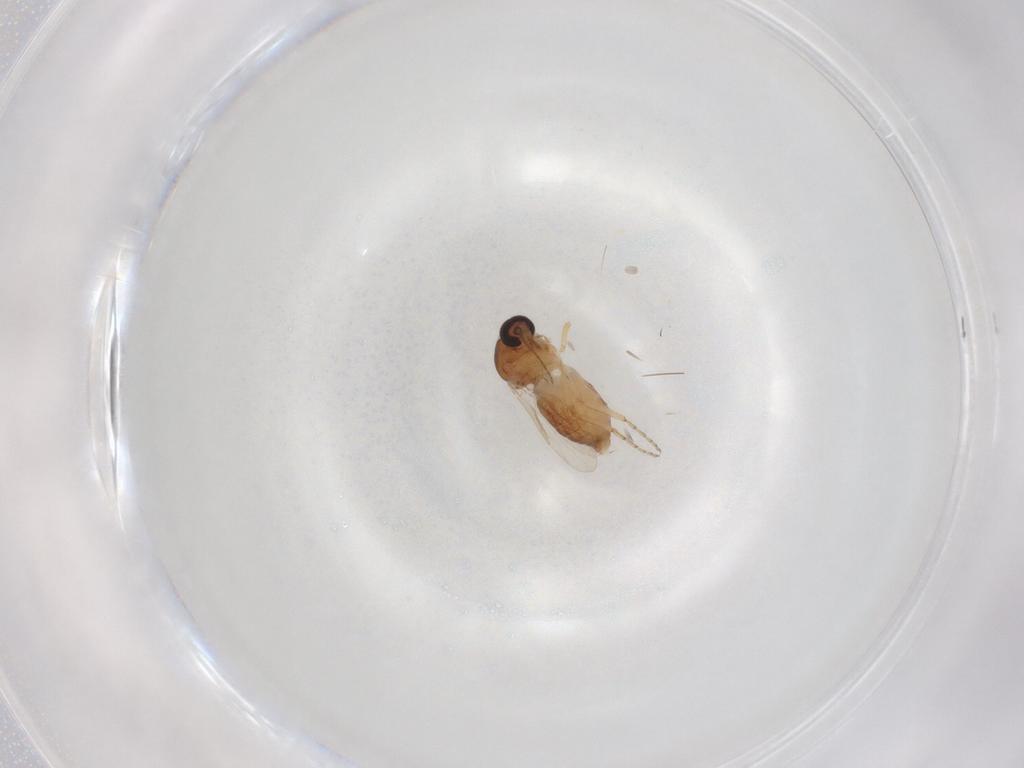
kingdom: Animalia
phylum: Arthropoda
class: Insecta
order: Diptera
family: Ceratopogonidae
